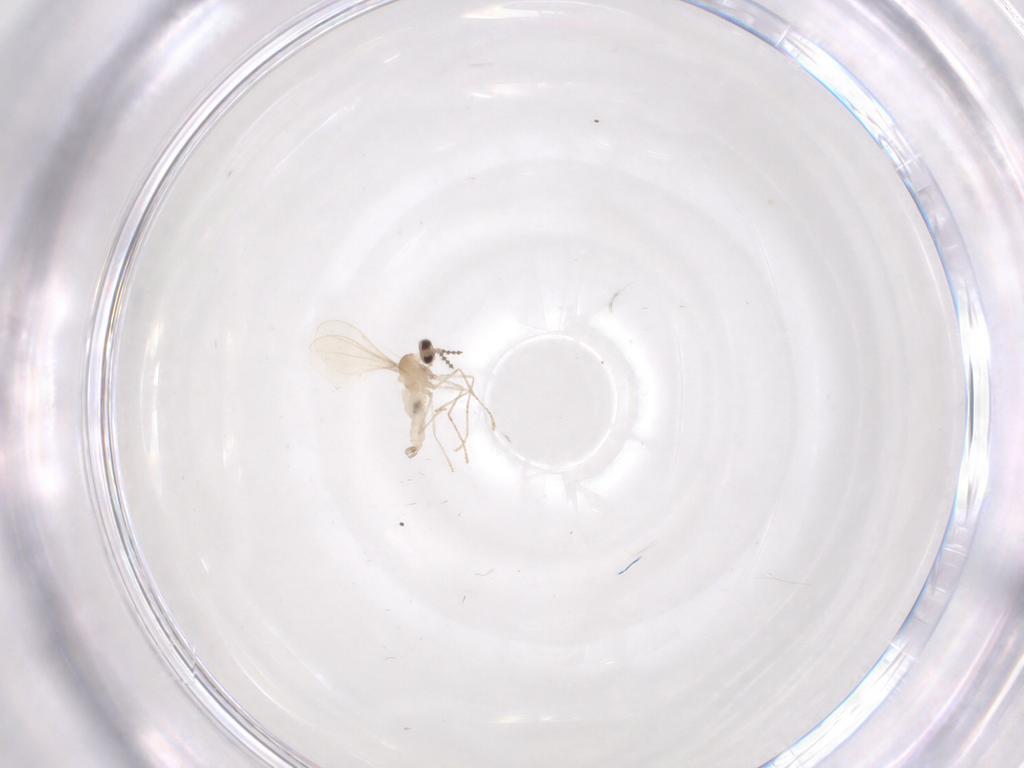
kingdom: Animalia
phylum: Arthropoda
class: Insecta
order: Diptera
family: Cecidomyiidae
